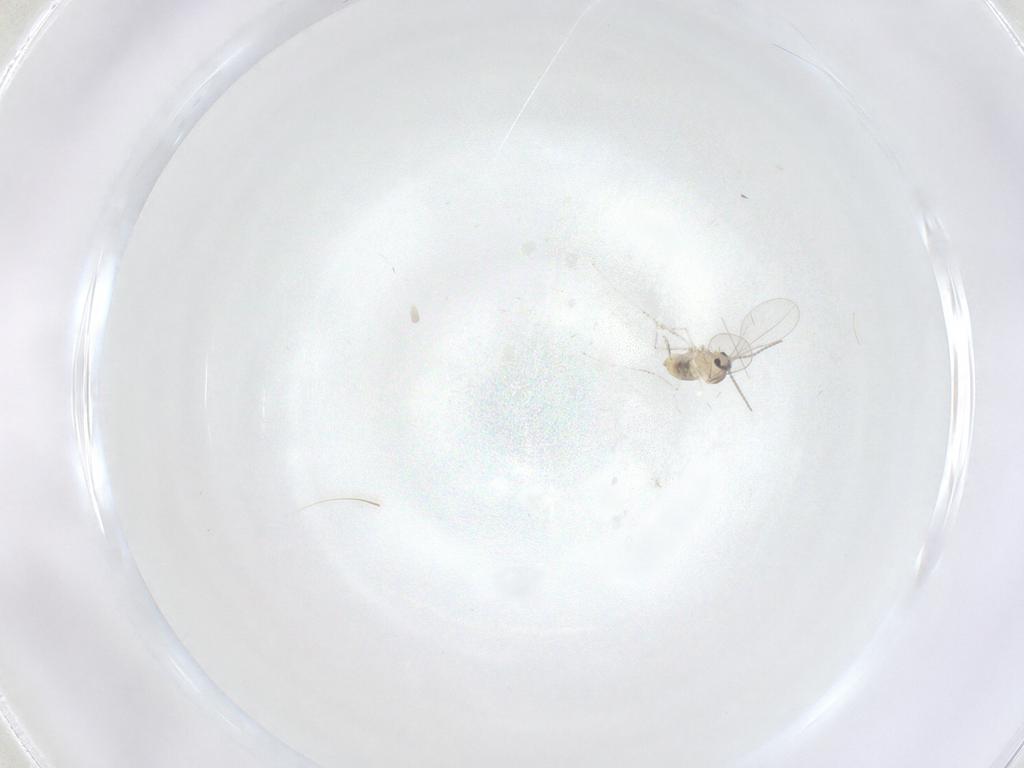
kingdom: Animalia
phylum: Arthropoda
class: Insecta
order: Diptera
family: Cecidomyiidae
